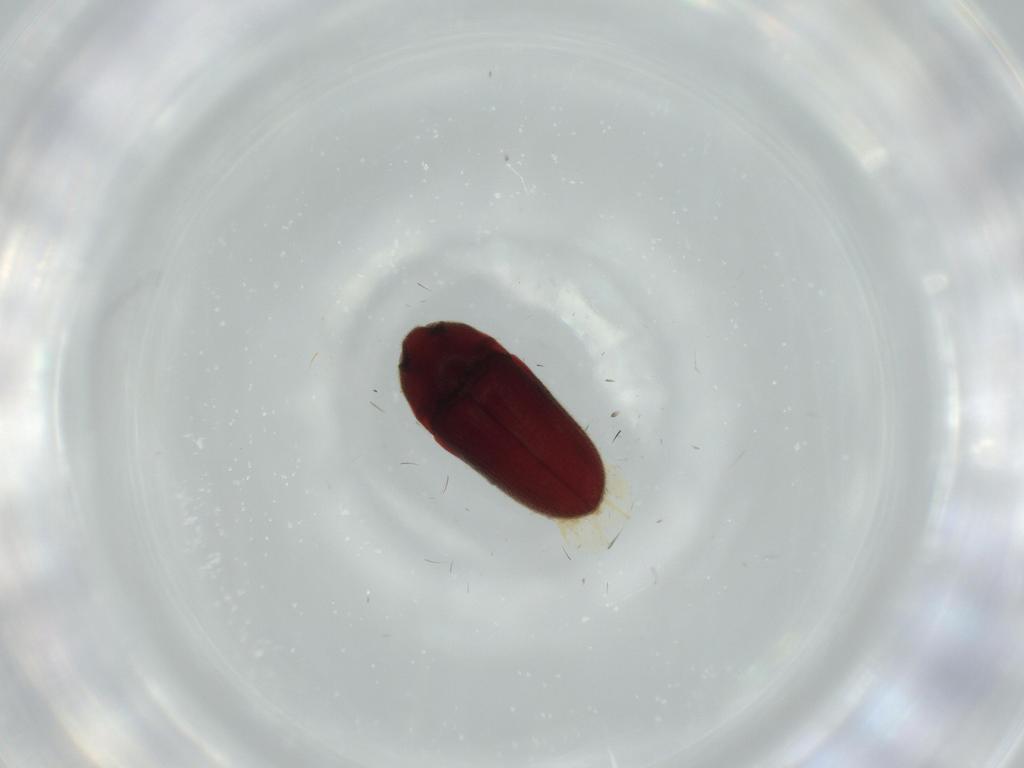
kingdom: Animalia
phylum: Arthropoda
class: Insecta
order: Coleoptera
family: Throscidae
